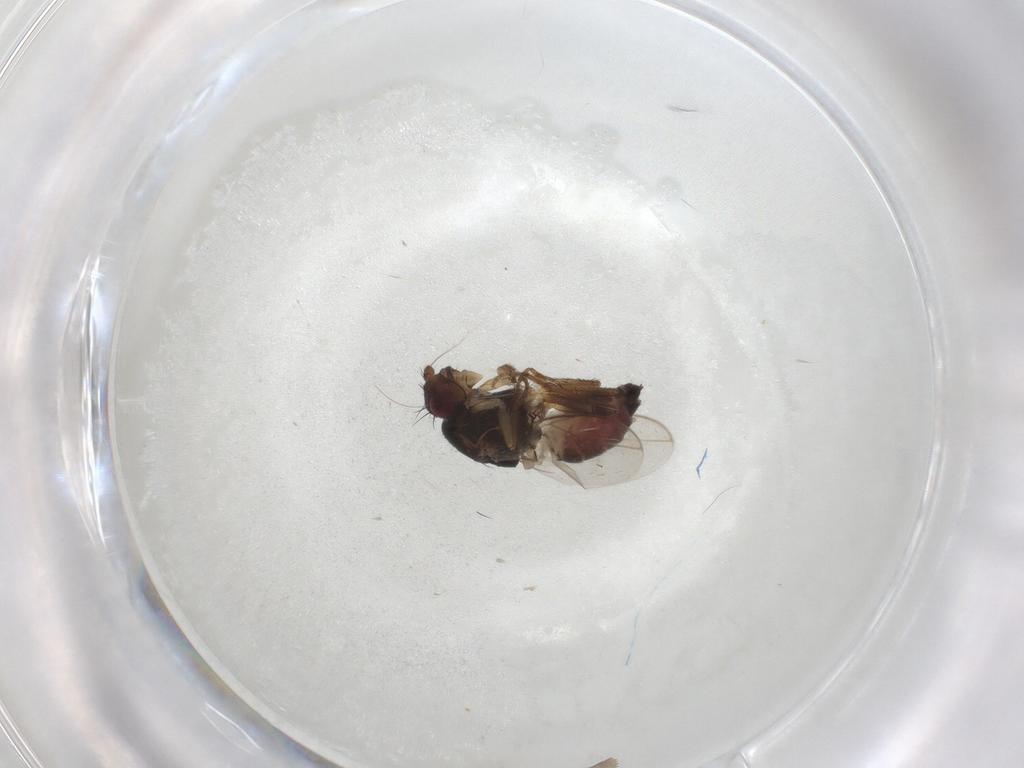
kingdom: Animalia
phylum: Arthropoda
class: Insecta
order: Diptera
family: Sphaeroceridae
